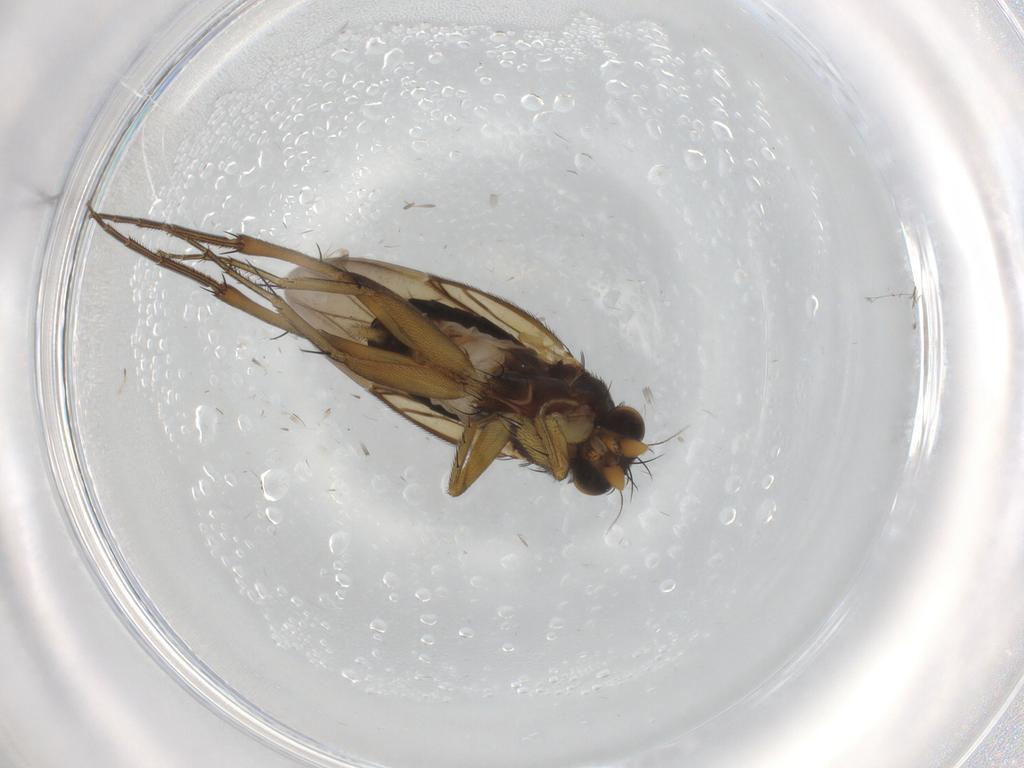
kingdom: Animalia
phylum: Arthropoda
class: Insecta
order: Diptera
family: Phoridae
